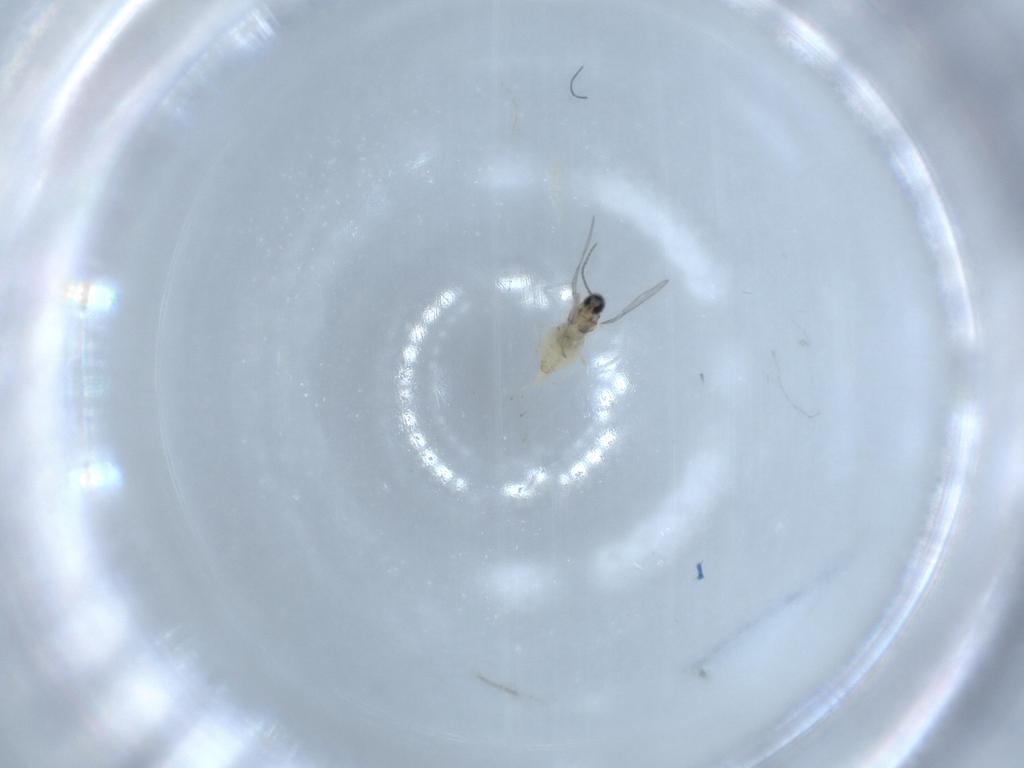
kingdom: Animalia
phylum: Arthropoda
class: Insecta
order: Diptera
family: Cecidomyiidae
